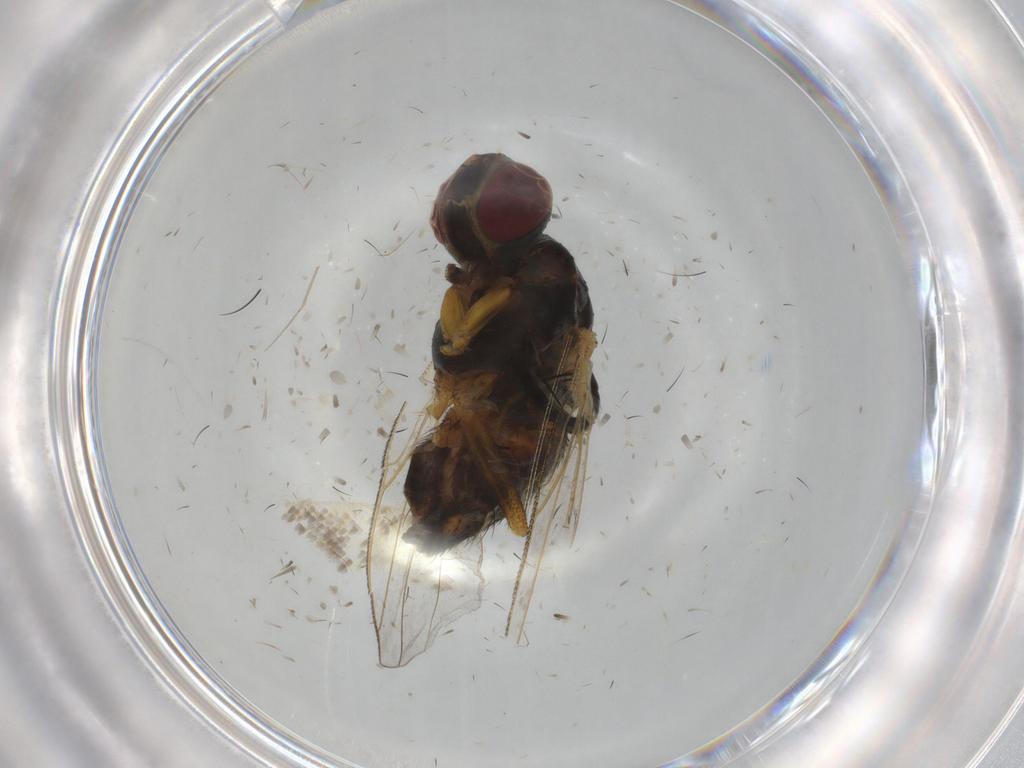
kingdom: Animalia
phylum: Arthropoda
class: Insecta
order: Diptera
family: Muscidae
